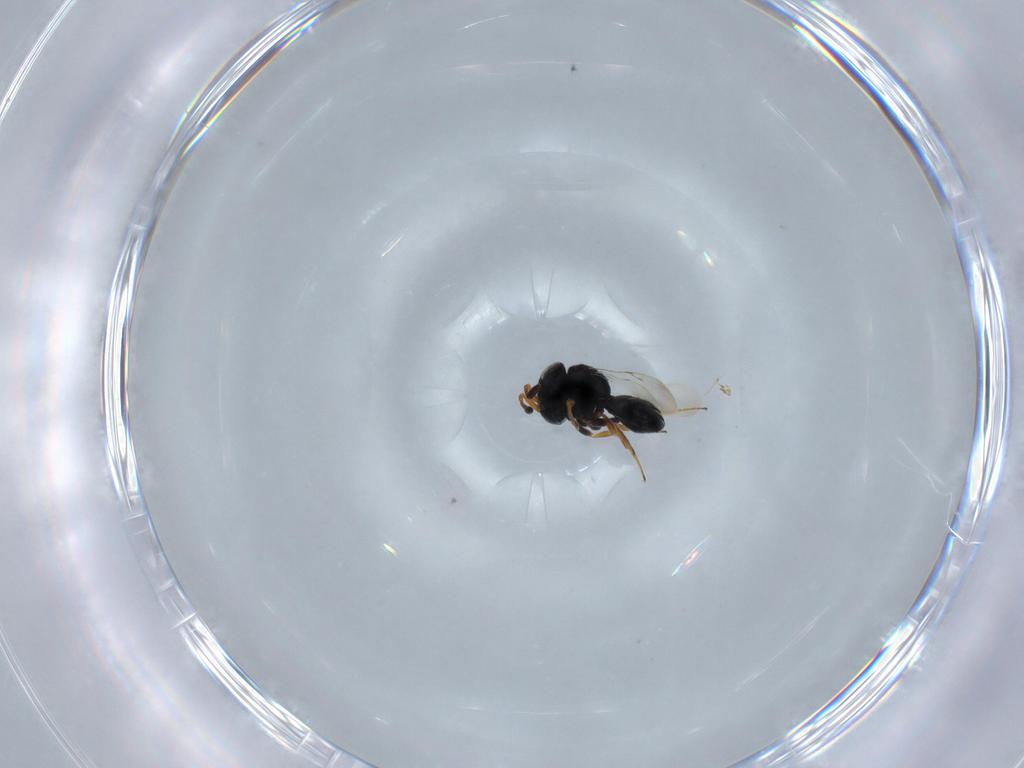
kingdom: Animalia
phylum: Arthropoda
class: Insecta
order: Hymenoptera
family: Scelionidae
